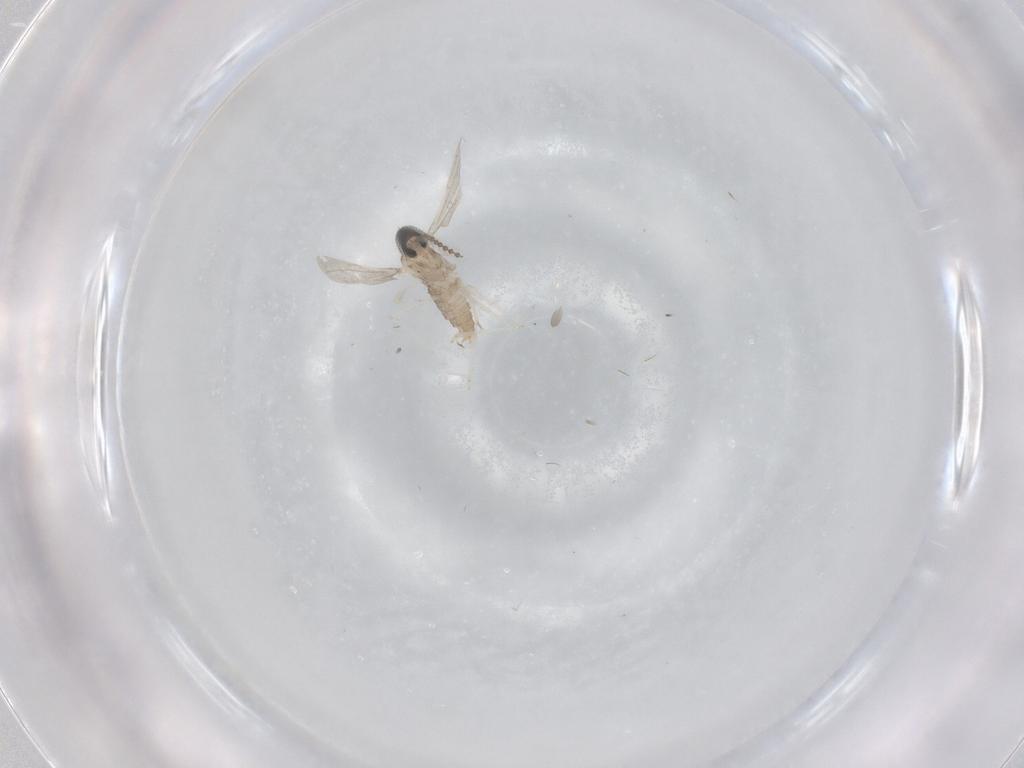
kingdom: Animalia
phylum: Arthropoda
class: Insecta
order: Diptera
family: Cecidomyiidae
